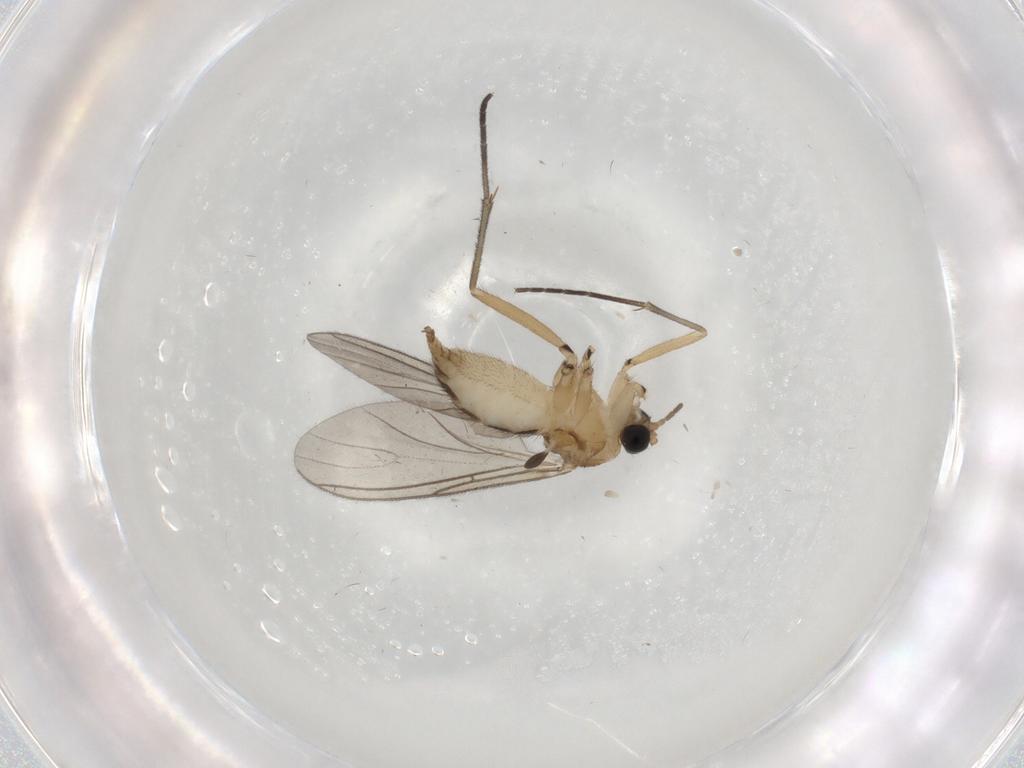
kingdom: Animalia
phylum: Arthropoda
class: Insecta
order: Diptera
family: Sciaridae
